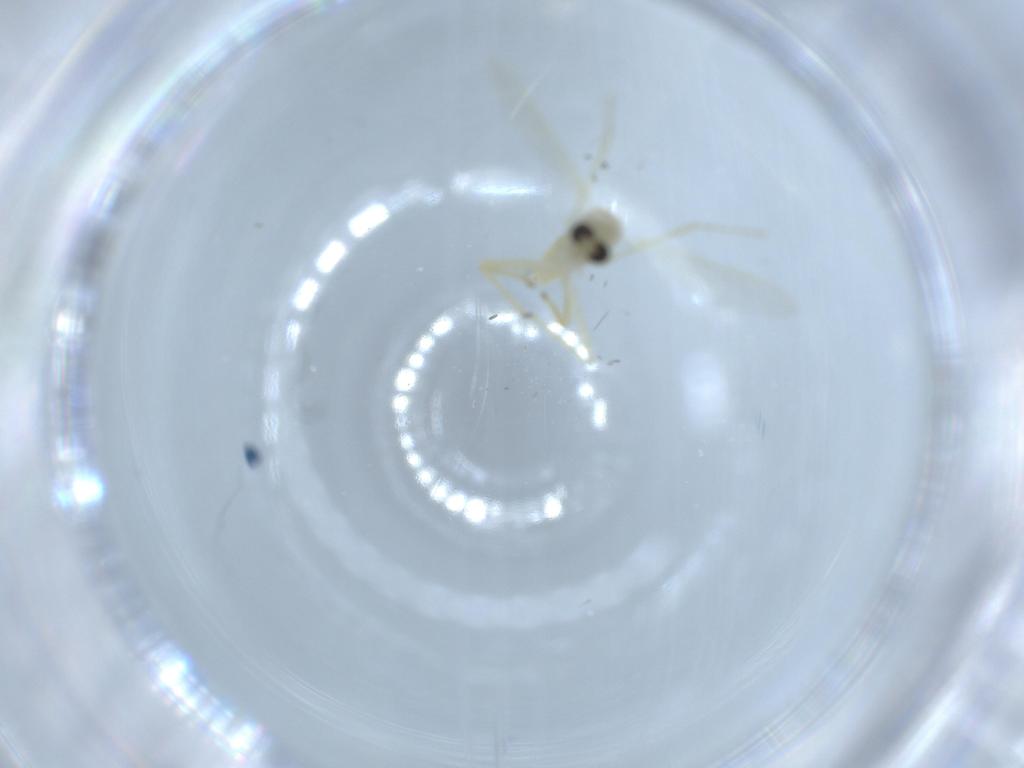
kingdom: Animalia
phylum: Arthropoda
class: Insecta
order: Diptera
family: Chironomidae
